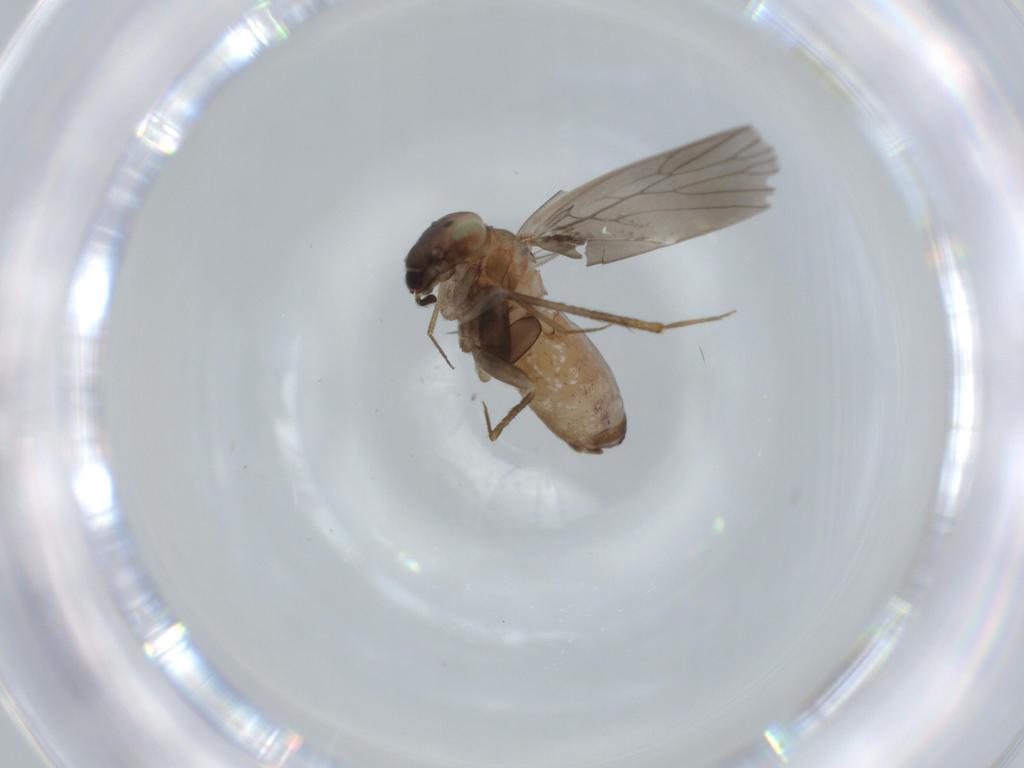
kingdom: Animalia
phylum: Arthropoda
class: Insecta
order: Psocodea
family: Lepidopsocidae
